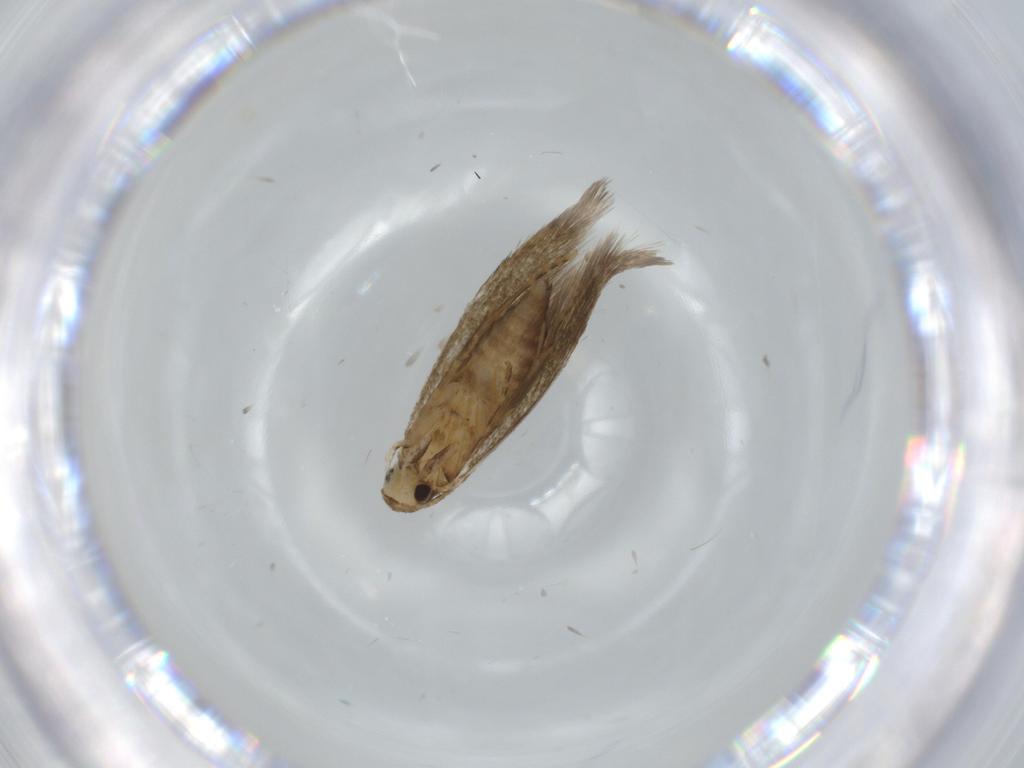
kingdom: Animalia
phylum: Arthropoda
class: Insecta
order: Lepidoptera
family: Tineidae
